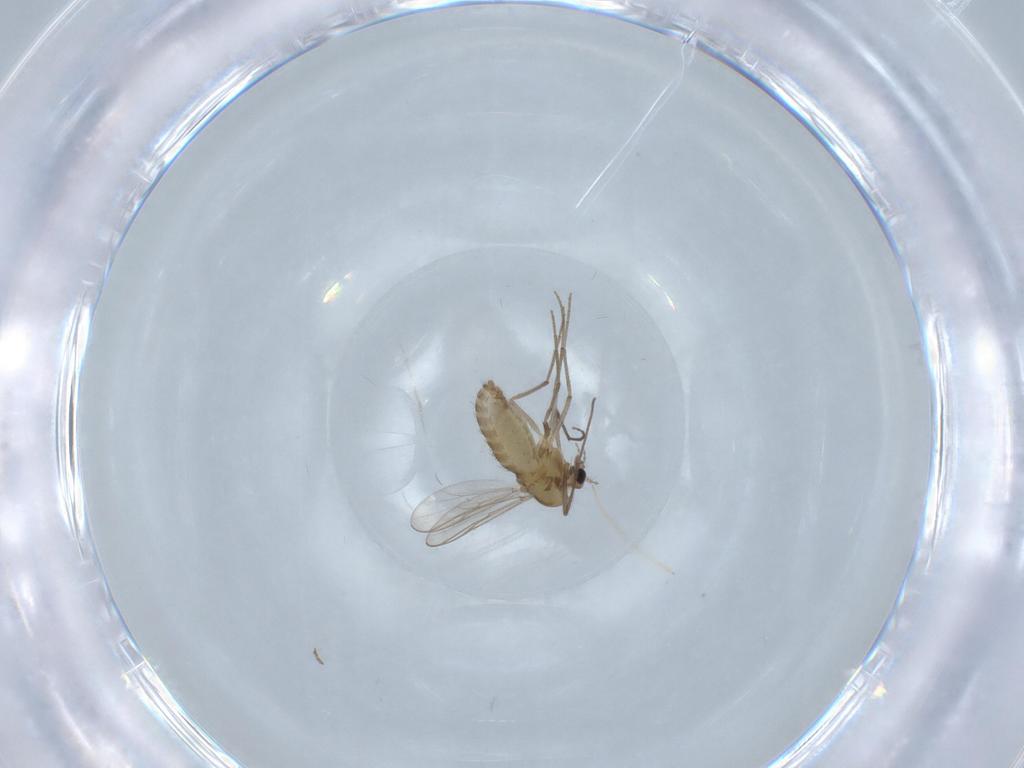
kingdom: Animalia
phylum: Arthropoda
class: Insecta
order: Diptera
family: Chironomidae
